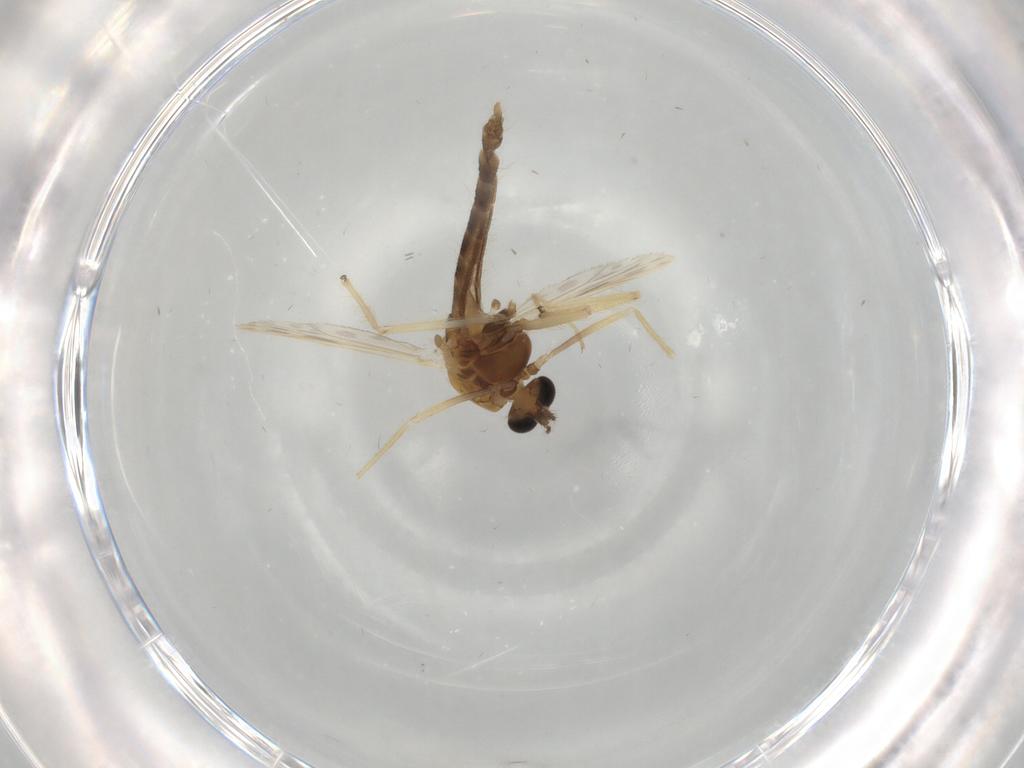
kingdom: Animalia
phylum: Arthropoda
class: Insecta
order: Diptera
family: Chironomidae
